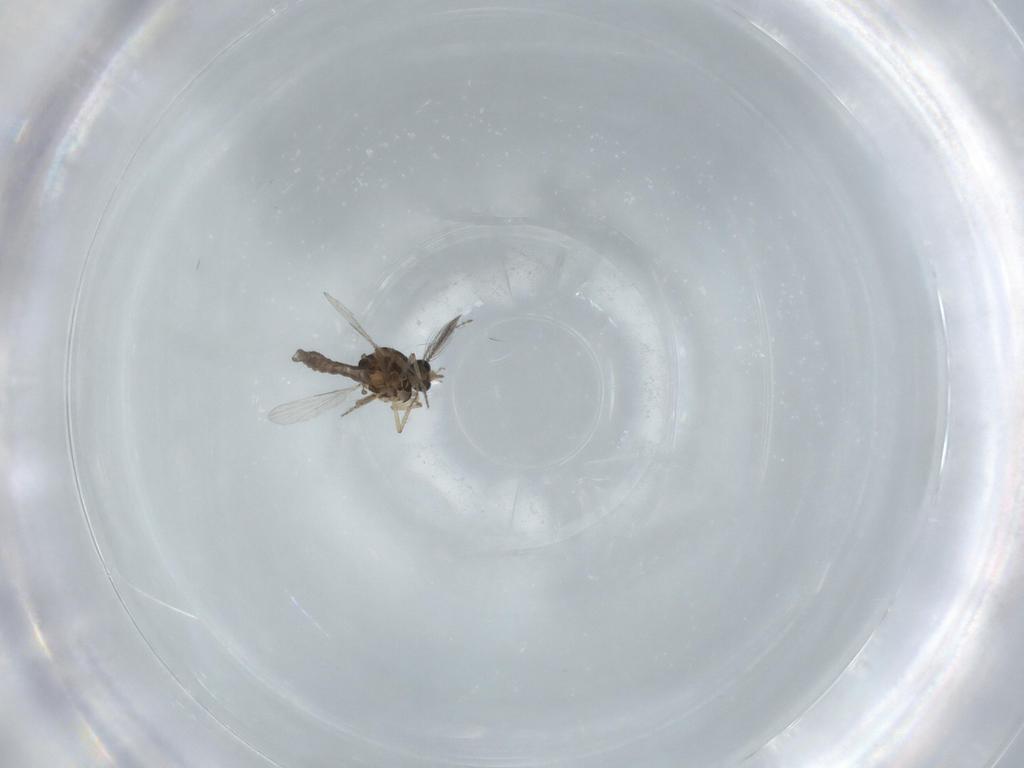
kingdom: Animalia
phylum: Arthropoda
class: Insecta
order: Diptera
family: Ceratopogonidae
